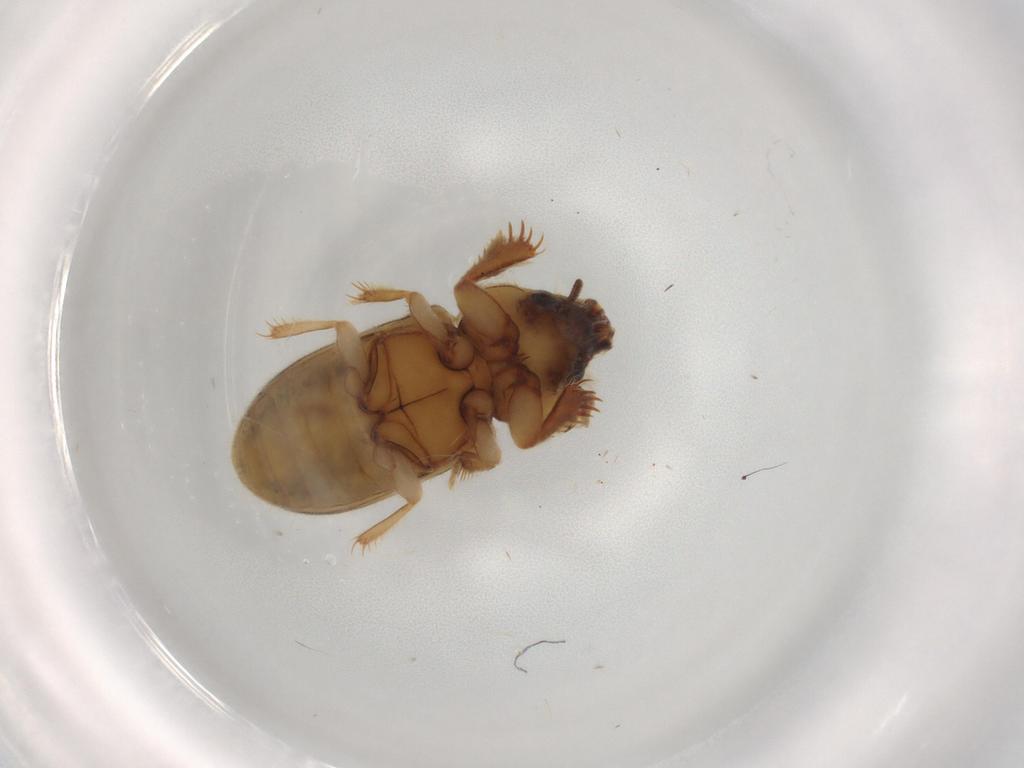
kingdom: Animalia
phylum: Arthropoda
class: Insecta
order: Coleoptera
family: Heteroceridae
